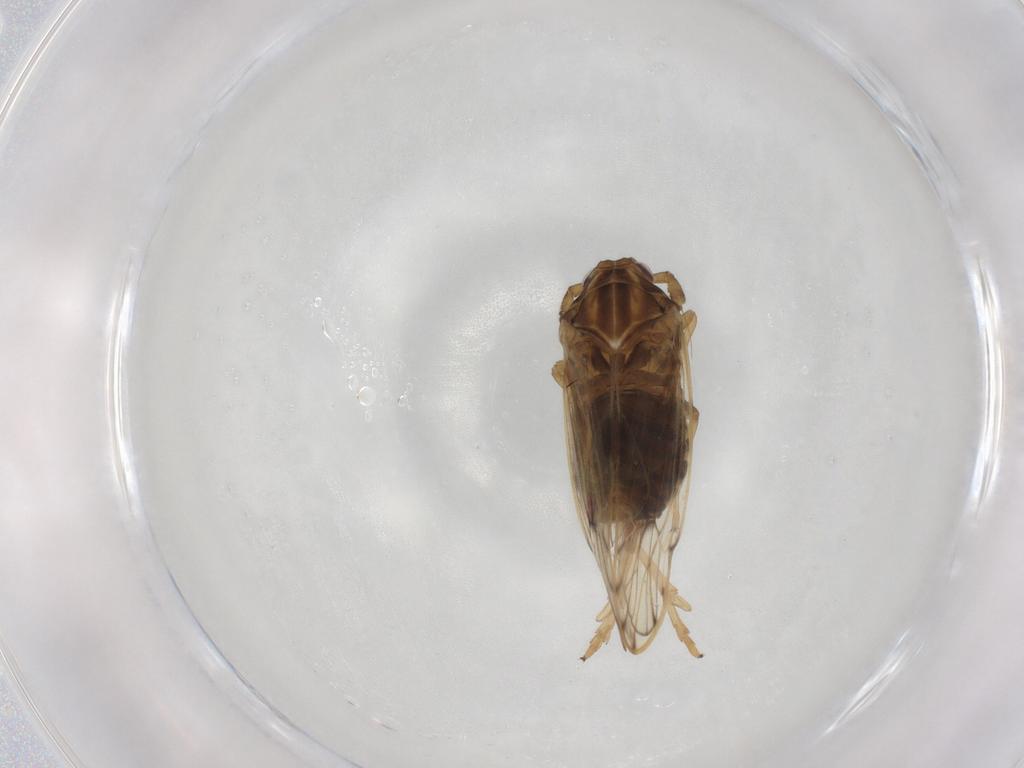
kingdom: Animalia
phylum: Arthropoda
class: Insecta
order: Hemiptera
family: Delphacidae
